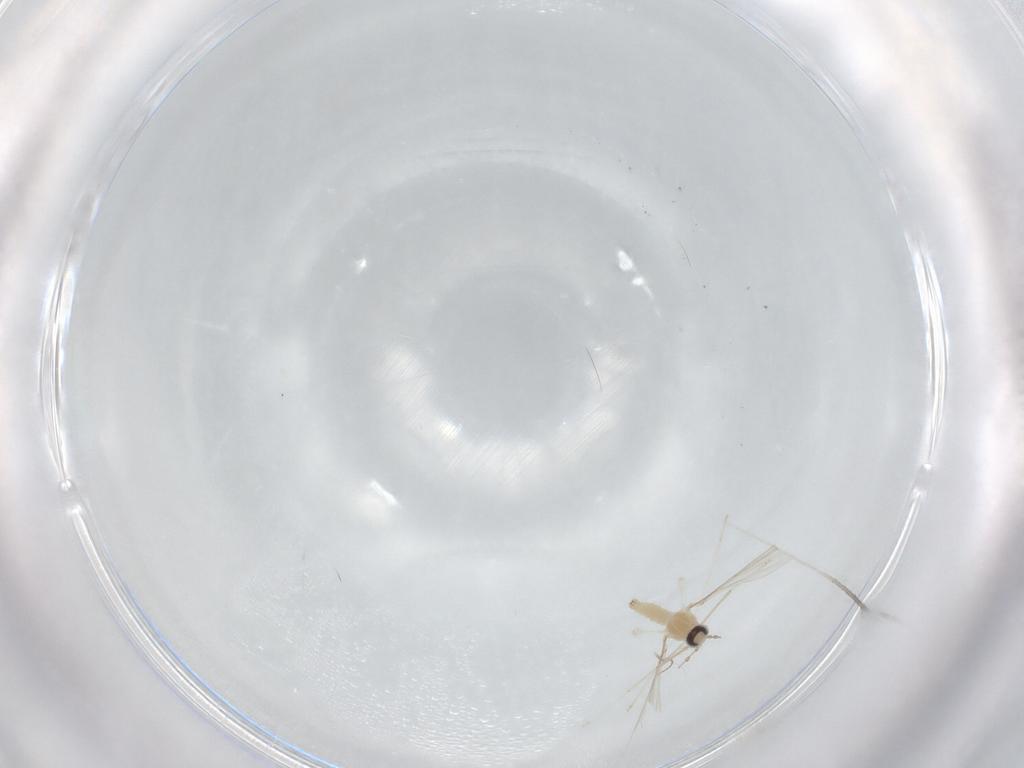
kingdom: Animalia
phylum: Arthropoda
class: Insecta
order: Diptera
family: Cecidomyiidae
